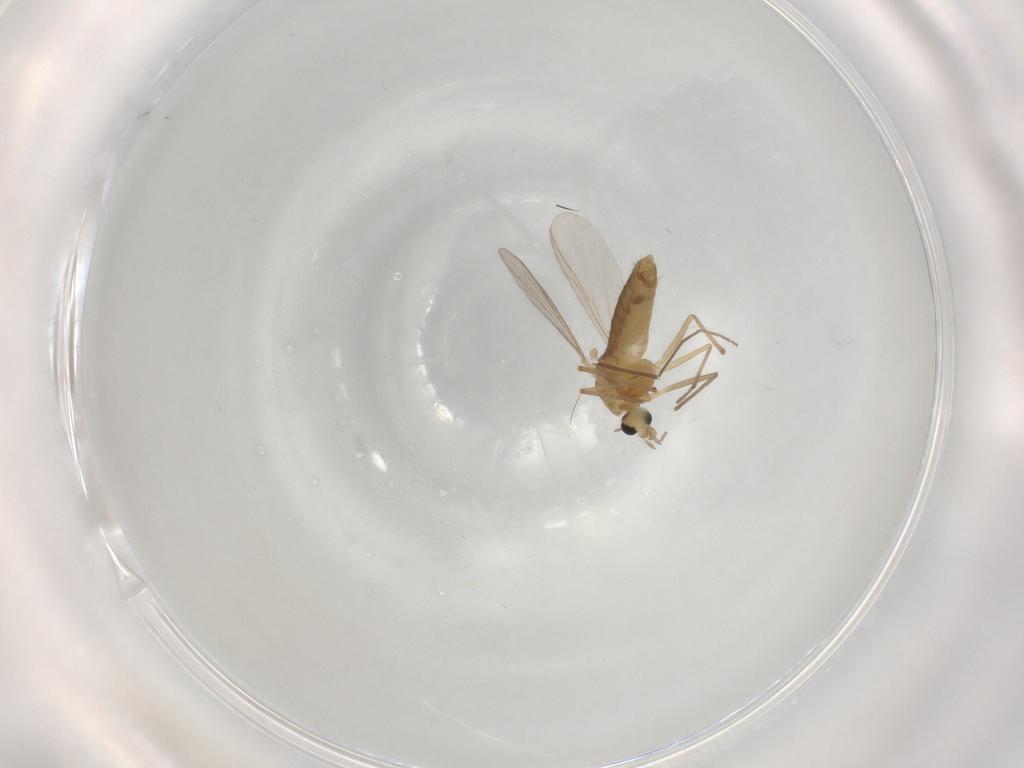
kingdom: Animalia
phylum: Arthropoda
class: Insecta
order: Diptera
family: Chironomidae
